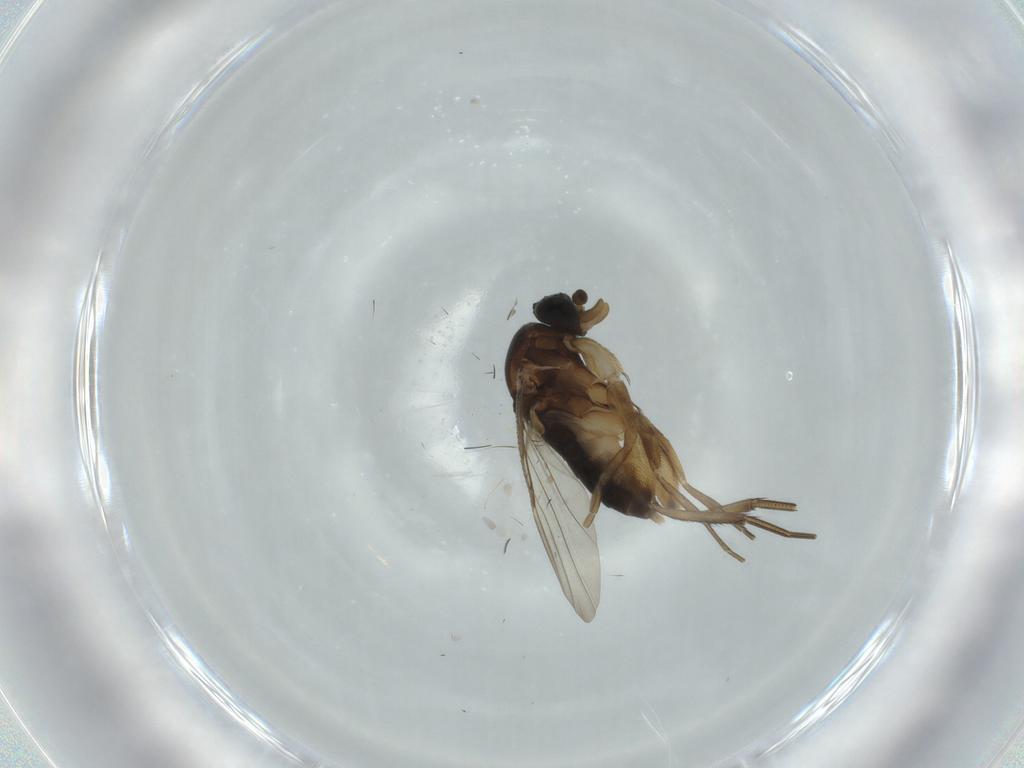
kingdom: Animalia
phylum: Arthropoda
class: Insecta
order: Diptera
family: Phoridae
